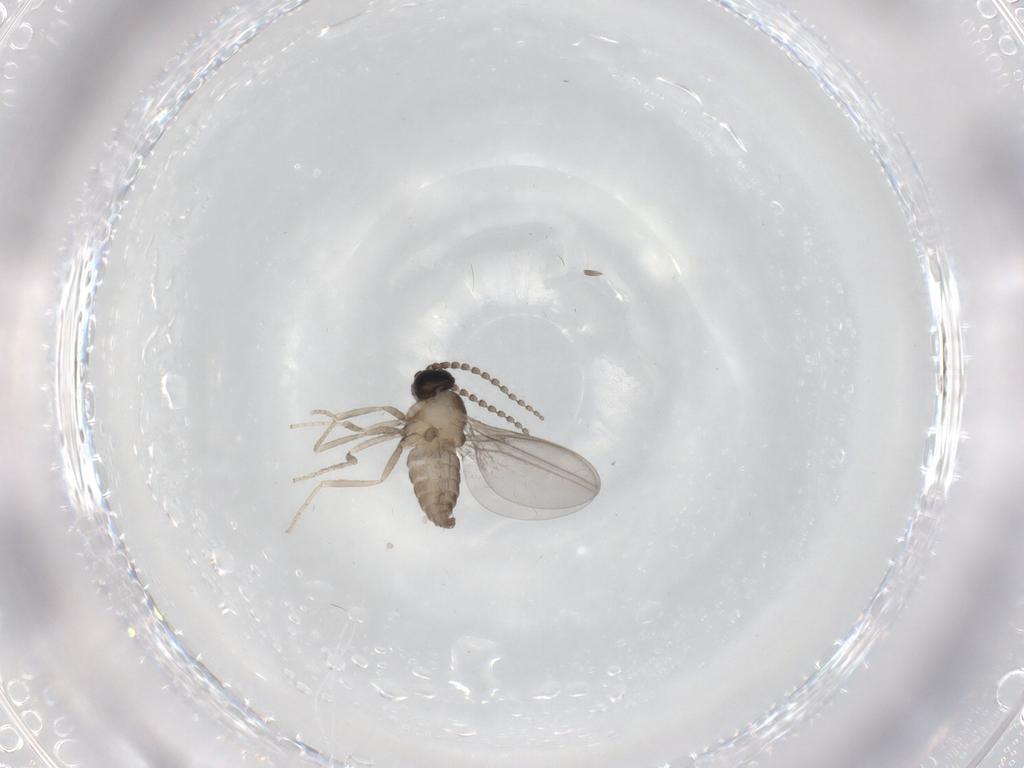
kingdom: Animalia
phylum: Arthropoda
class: Insecta
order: Diptera
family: Cecidomyiidae
